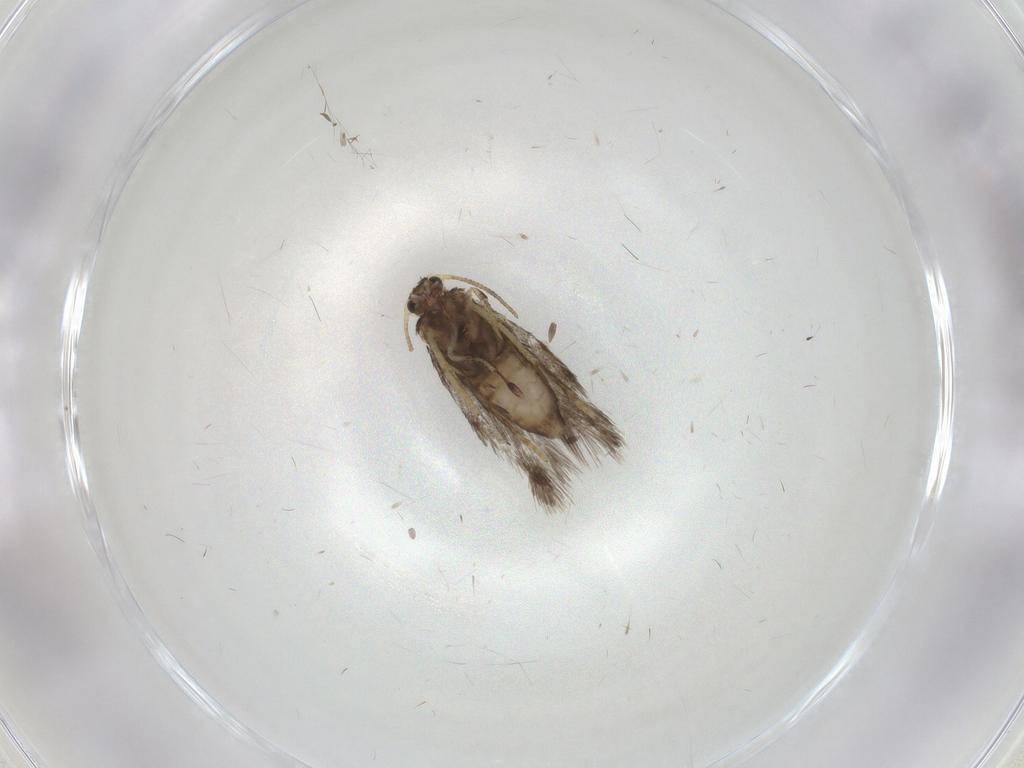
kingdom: Animalia
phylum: Arthropoda
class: Insecta
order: Lepidoptera
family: Nepticulidae
